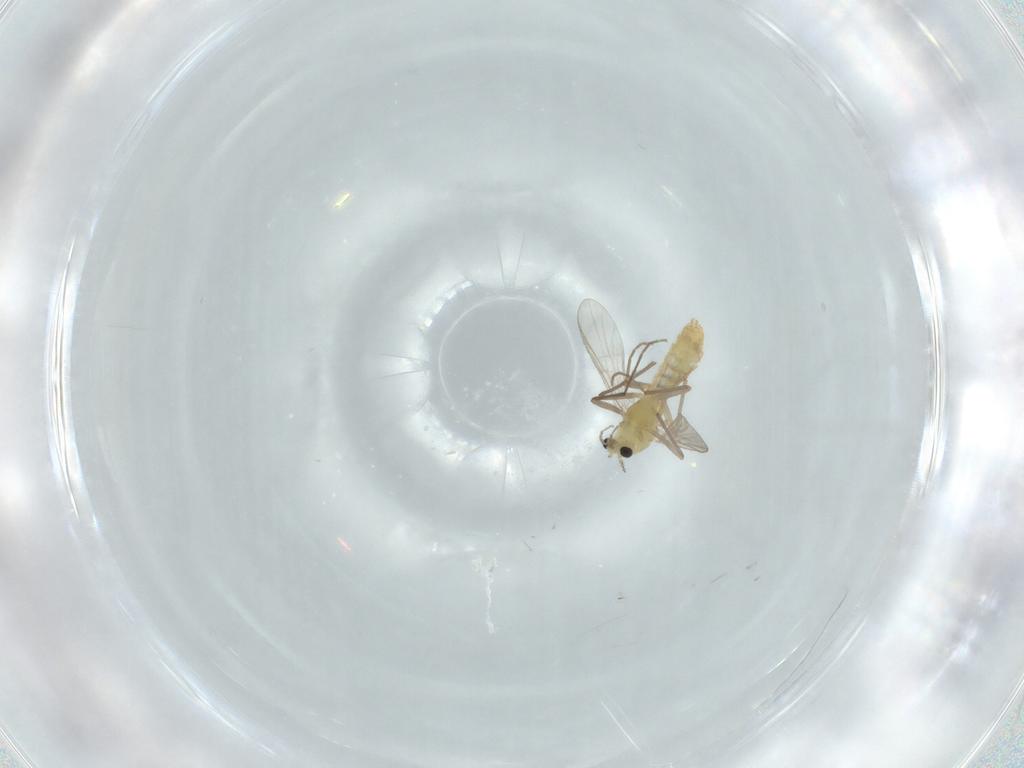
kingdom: Animalia
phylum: Arthropoda
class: Insecta
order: Diptera
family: Chironomidae
